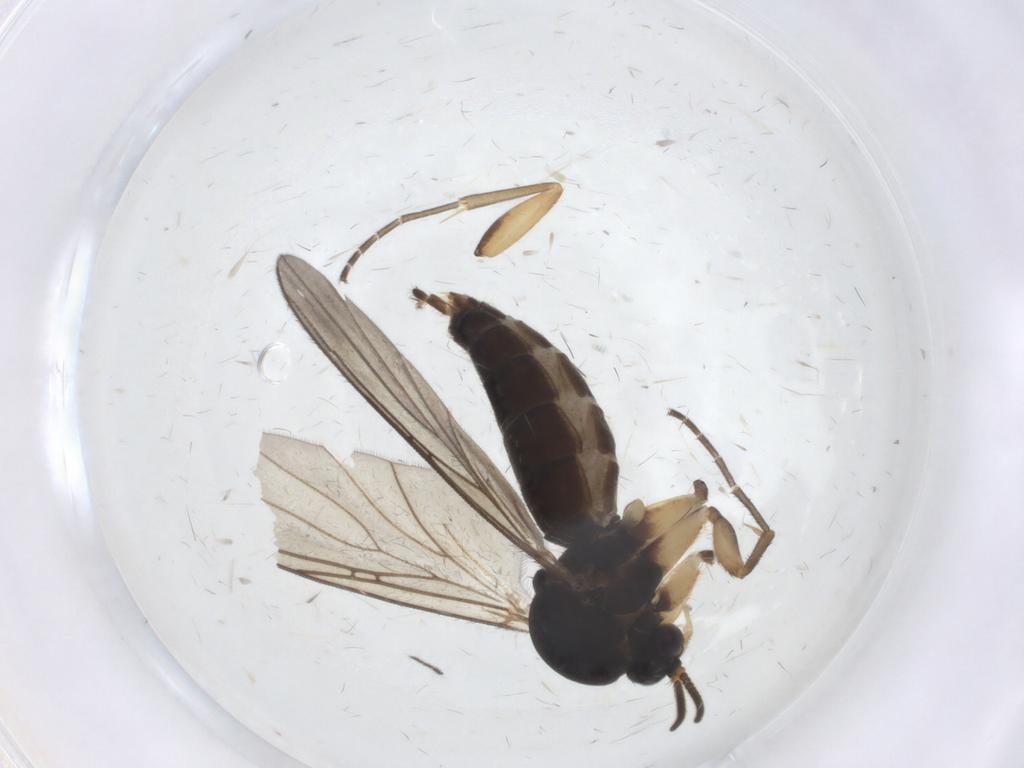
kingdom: Animalia
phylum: Arthropoda
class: Insecta
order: Diptera
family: Mycetophilidae
